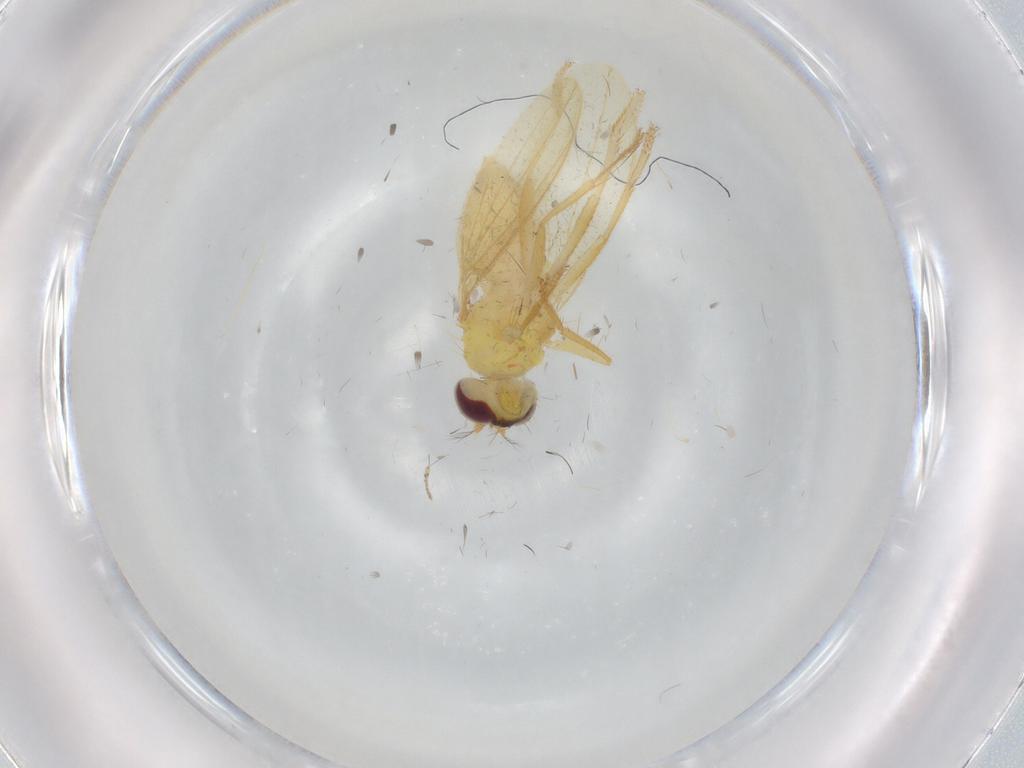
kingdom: Animalia
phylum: Arthropoda
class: Insecta
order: Diptera
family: Periscelididae
